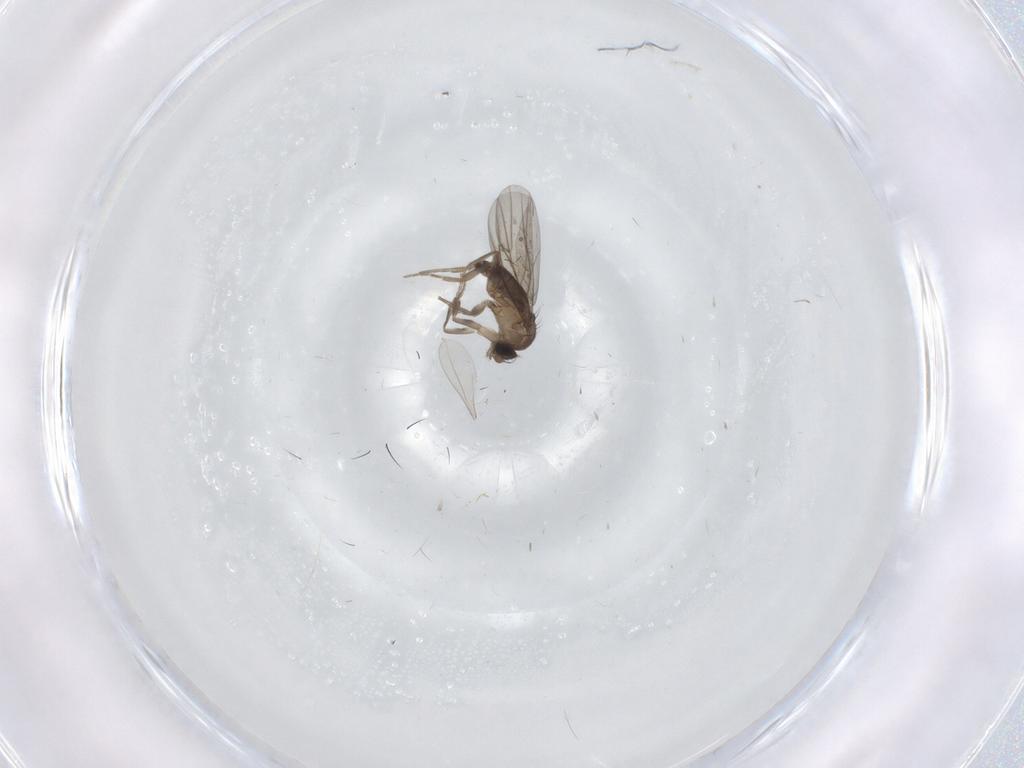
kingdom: Animalia
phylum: Arthropoda
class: Insecta
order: Diptera
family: Phoridae
